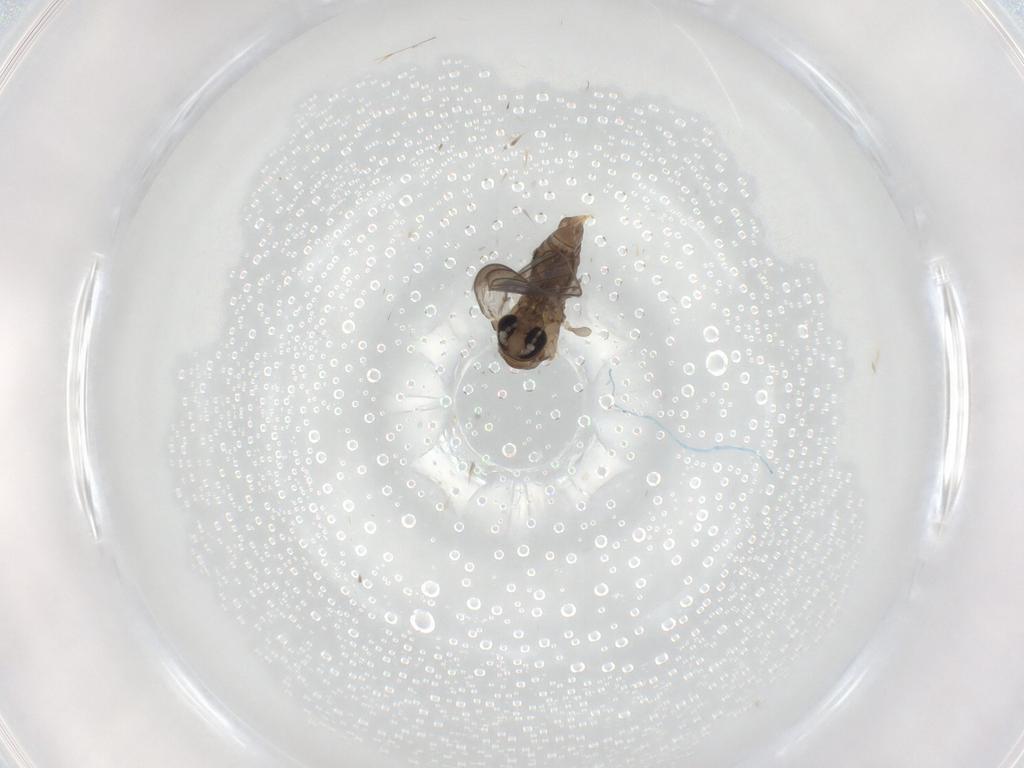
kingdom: Animalia
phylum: Arthropoda
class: Insecta
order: Diptera
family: Psychodidae
